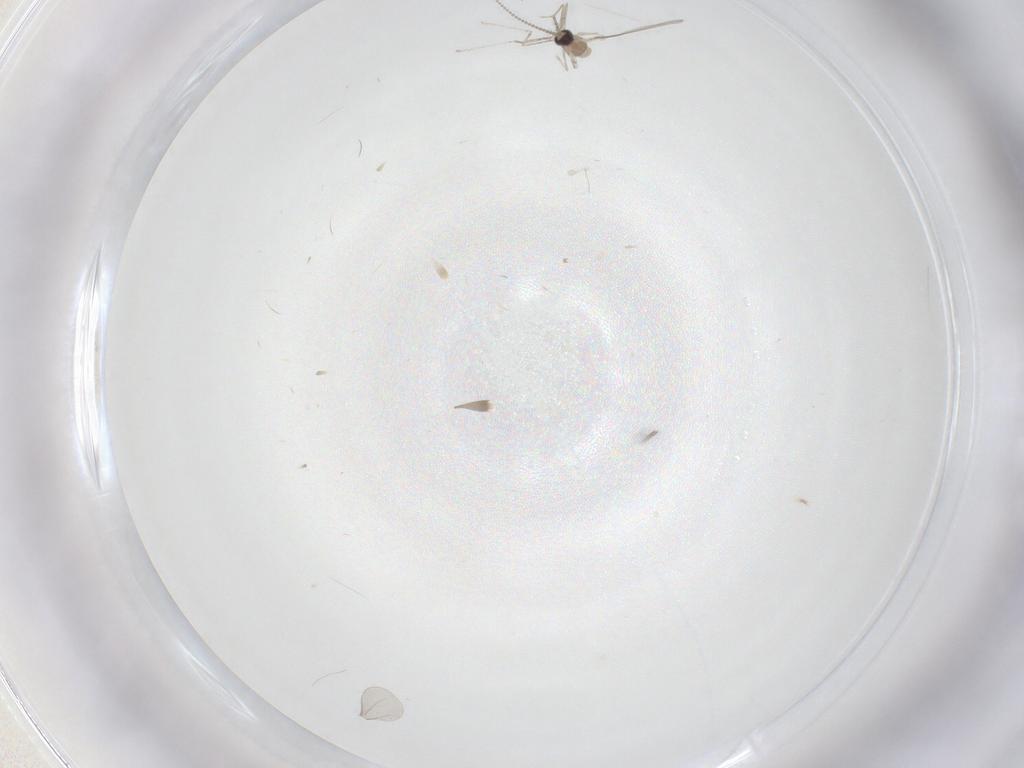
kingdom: Animalia
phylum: Arthropoda
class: Insecta
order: Diptera
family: Cecidomyiidae
